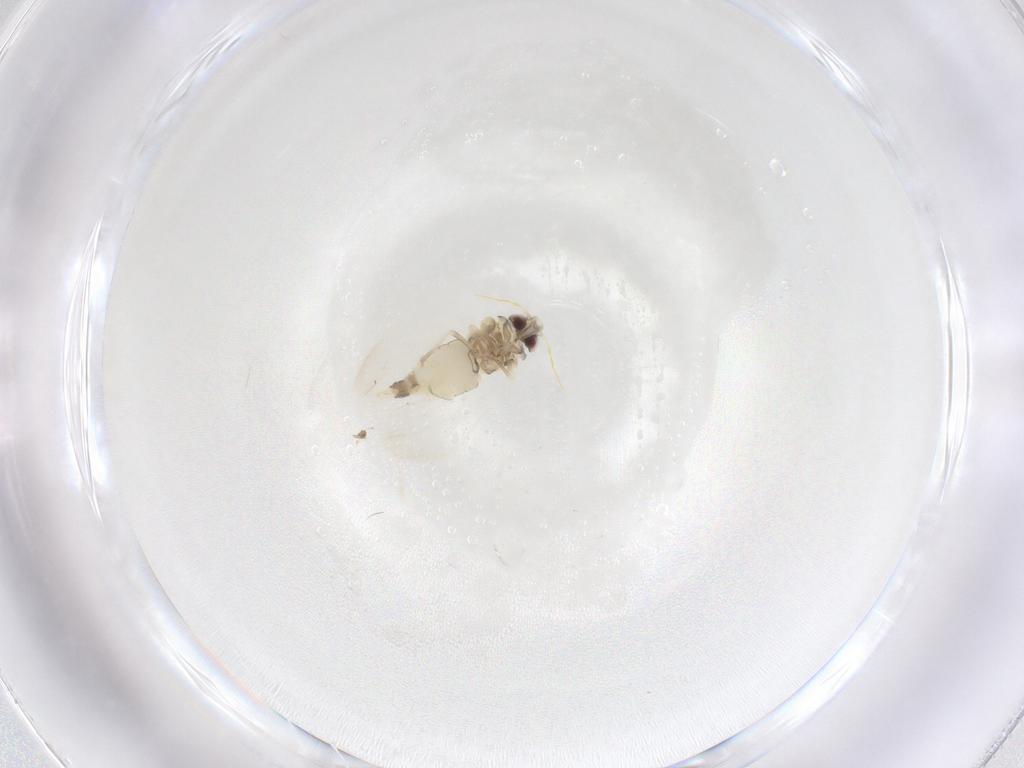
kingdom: Animalia
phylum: Arthropoda
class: Insecta
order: Hemiptera
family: Aleyrodidae
